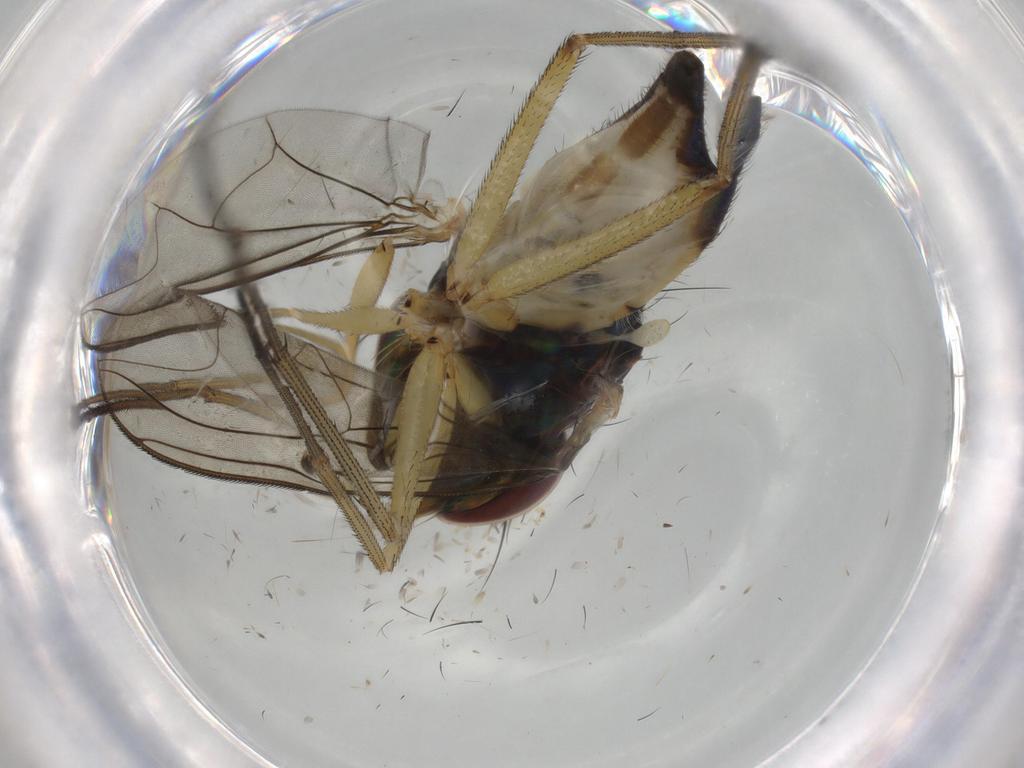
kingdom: Animalia
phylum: Arthropoda
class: Insecta
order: Diptera
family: Dolichopodidae
